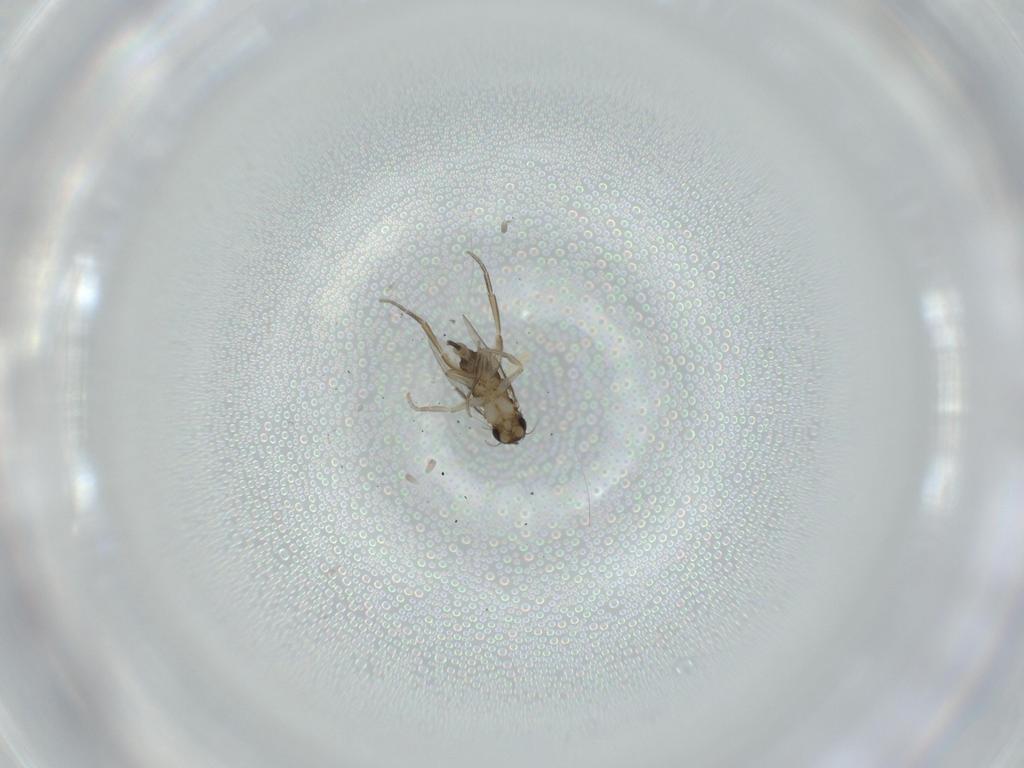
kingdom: Animalia
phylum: Arthropoda
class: Insecta
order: Diptera
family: Phoridae
